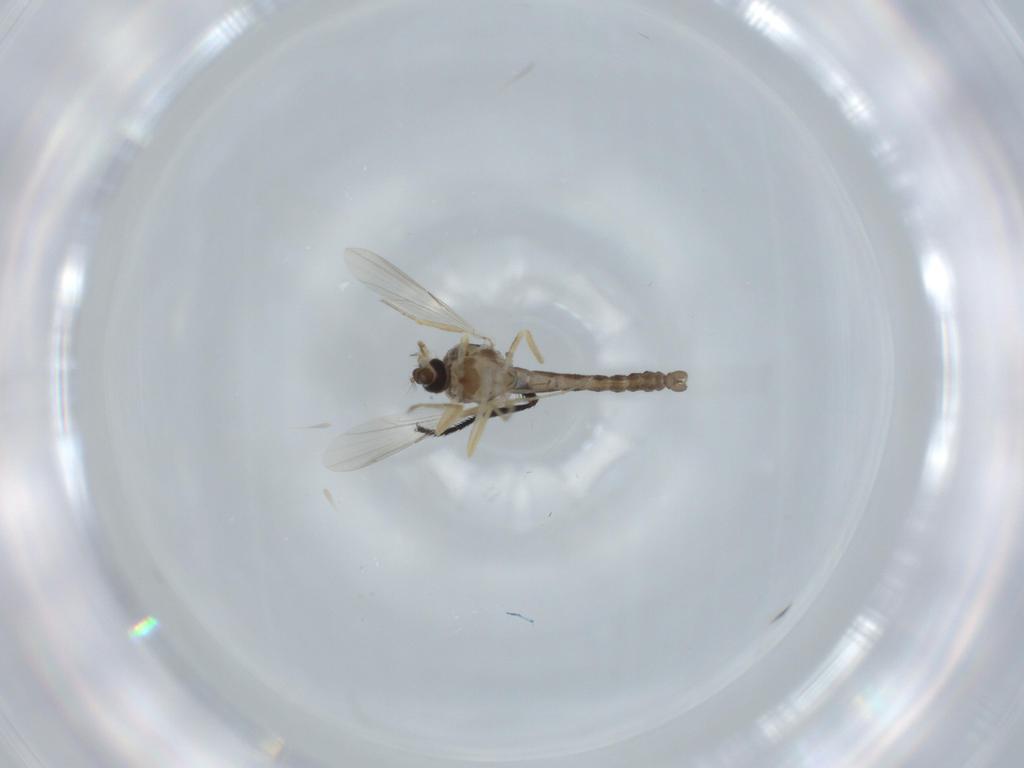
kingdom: Animalia
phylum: Arthropoda
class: Insecta
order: Diptera
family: Ceratopogonidae
